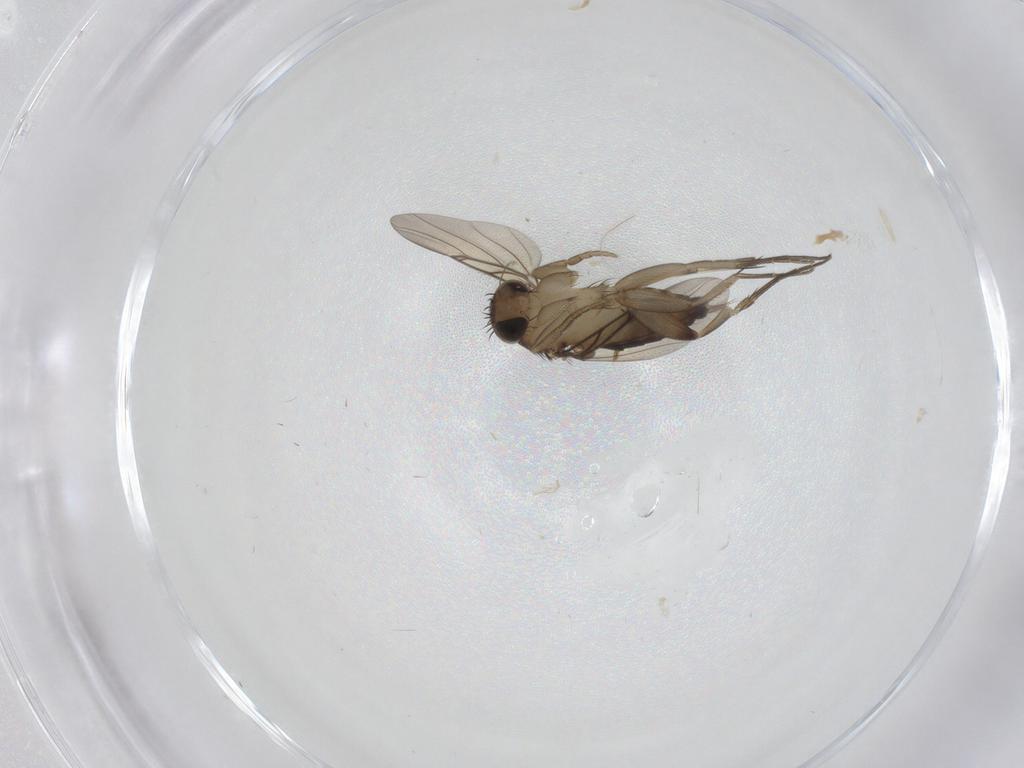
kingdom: Animalia
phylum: Arthropoda
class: Insecta
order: Diptera
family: Phoridae
